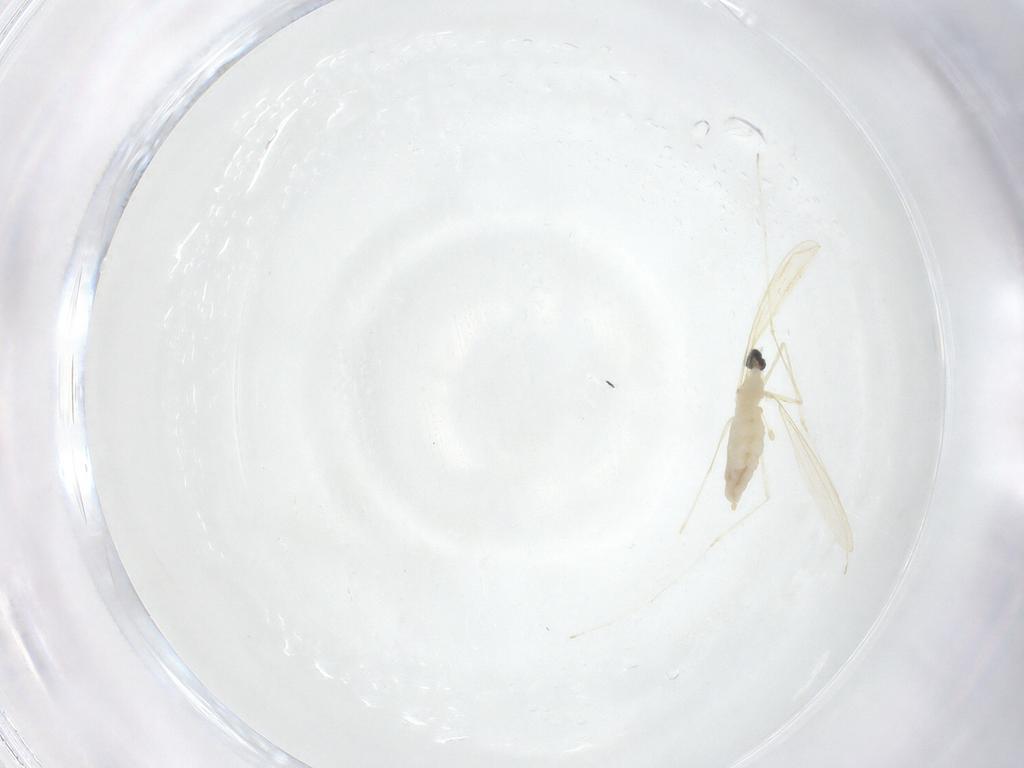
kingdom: Animalia
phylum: Arthropoda
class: Insecta
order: Diptera
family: Cecidomyiidae
